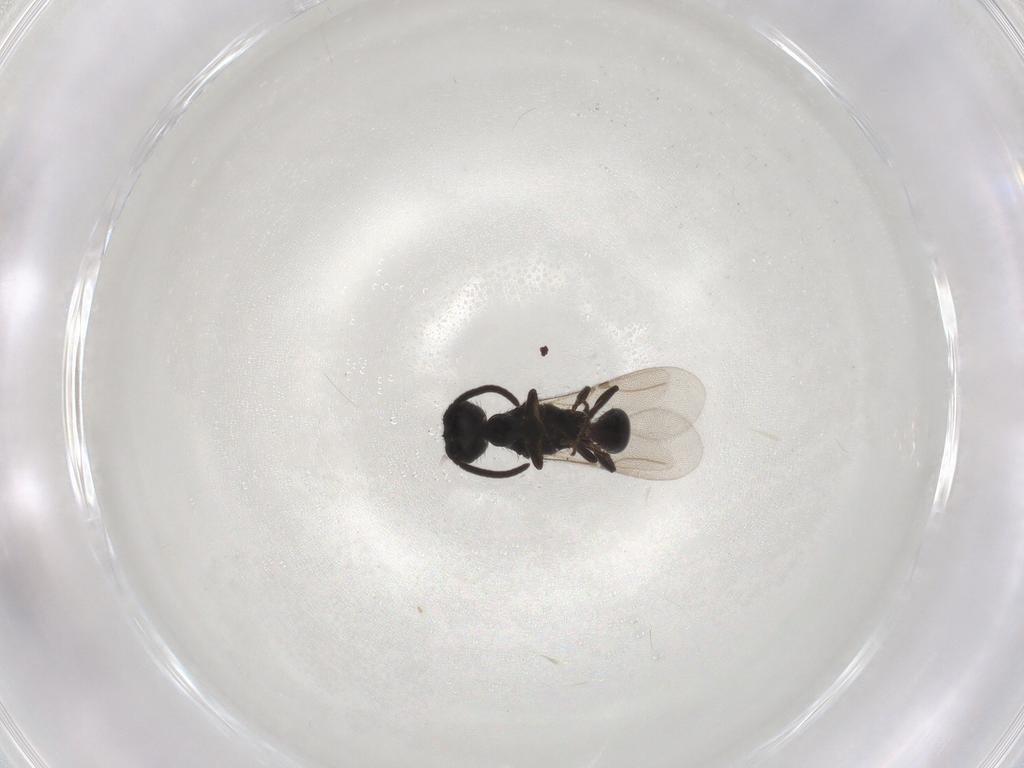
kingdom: Animalia
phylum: Arthropoda
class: Insecta
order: Hymenoptera
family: Bethylidae
